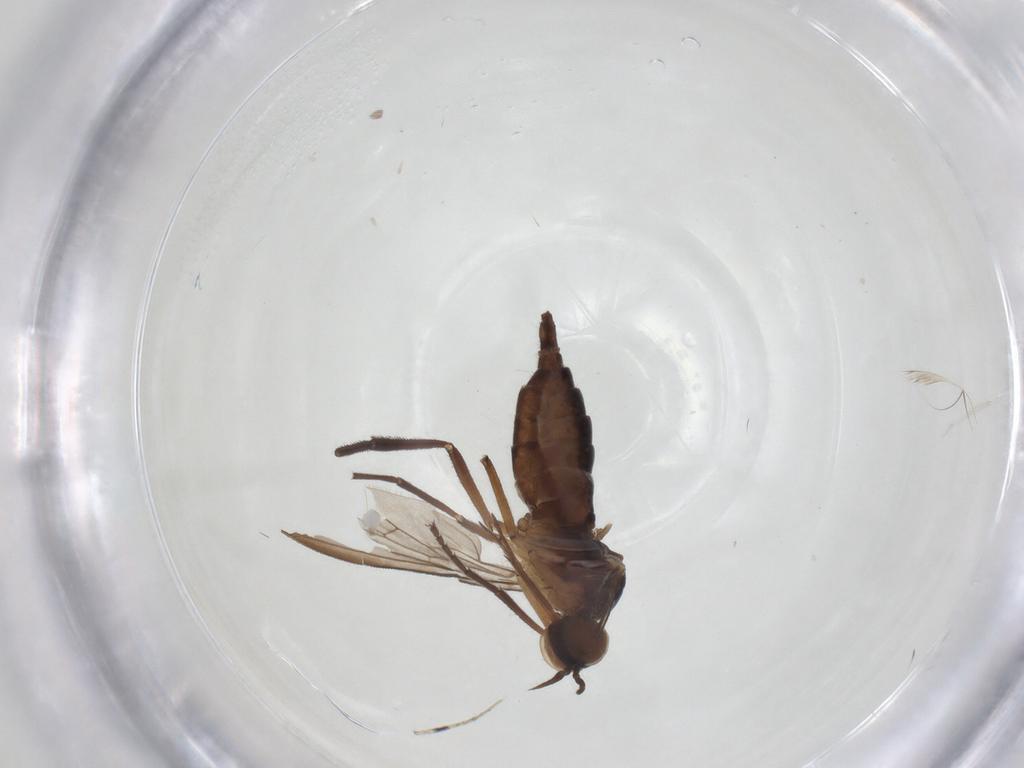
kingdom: Animalia
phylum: Arthropoda
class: Insecta
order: Diptera
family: Dolichopodidae
